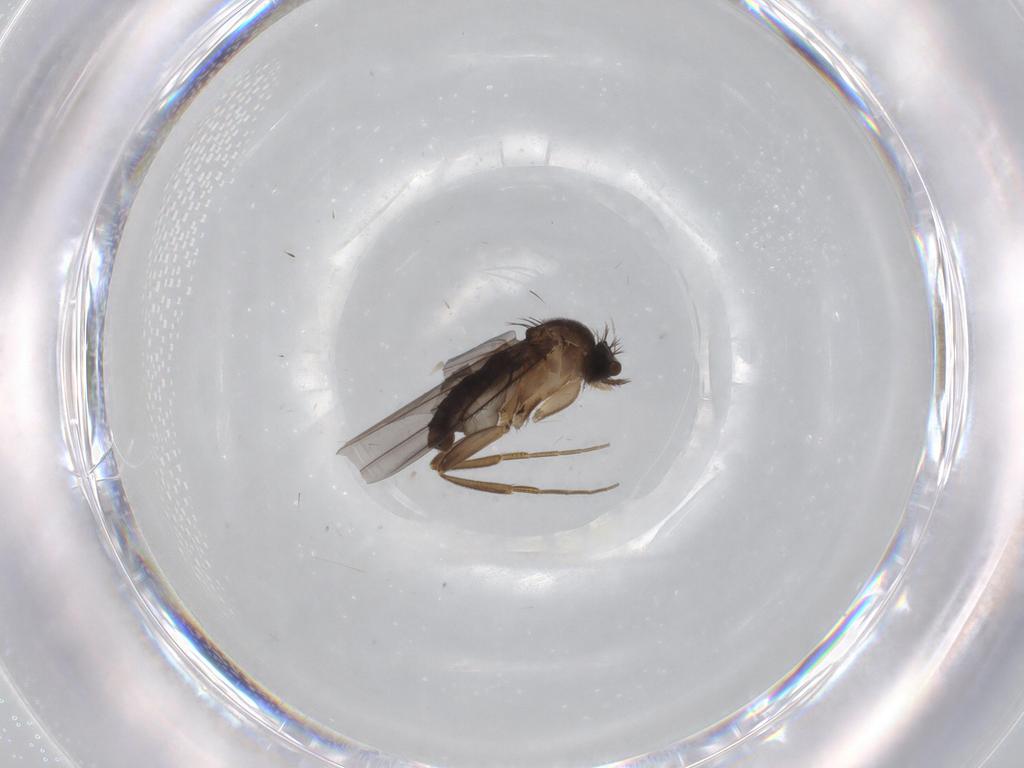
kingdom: Animalia
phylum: Arthropoda
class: Insecta
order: Diptera
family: Phoridae
